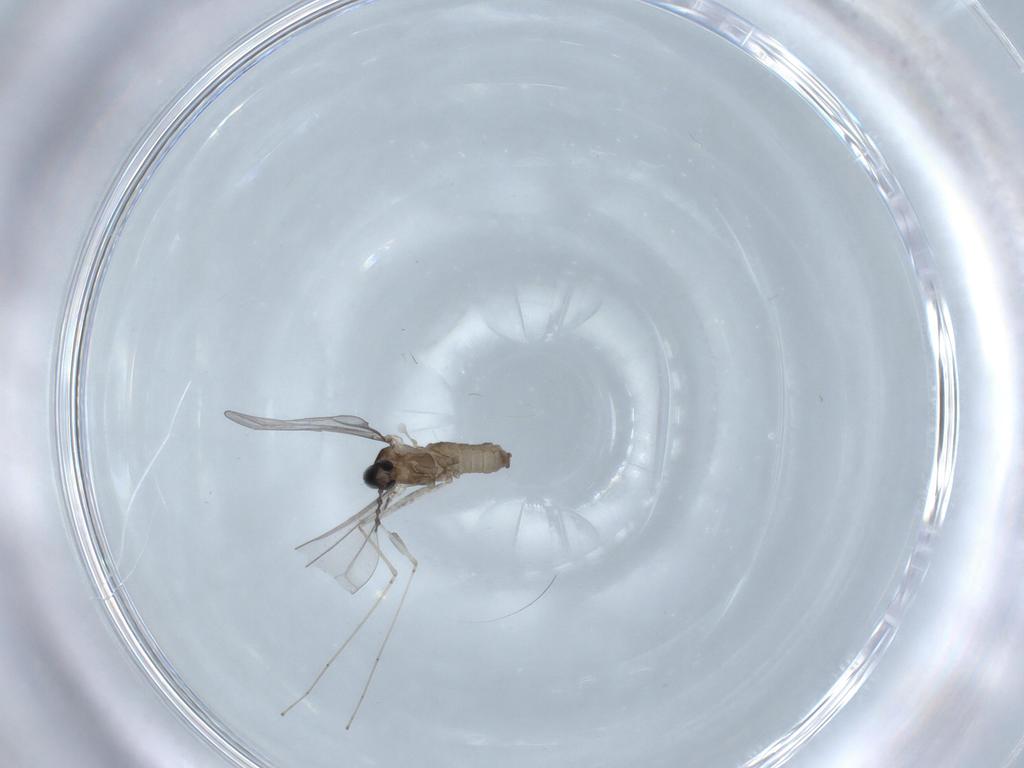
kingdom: Animalia
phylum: Arthropoda
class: Insecta
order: Diptera
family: Cecidomyiidae
